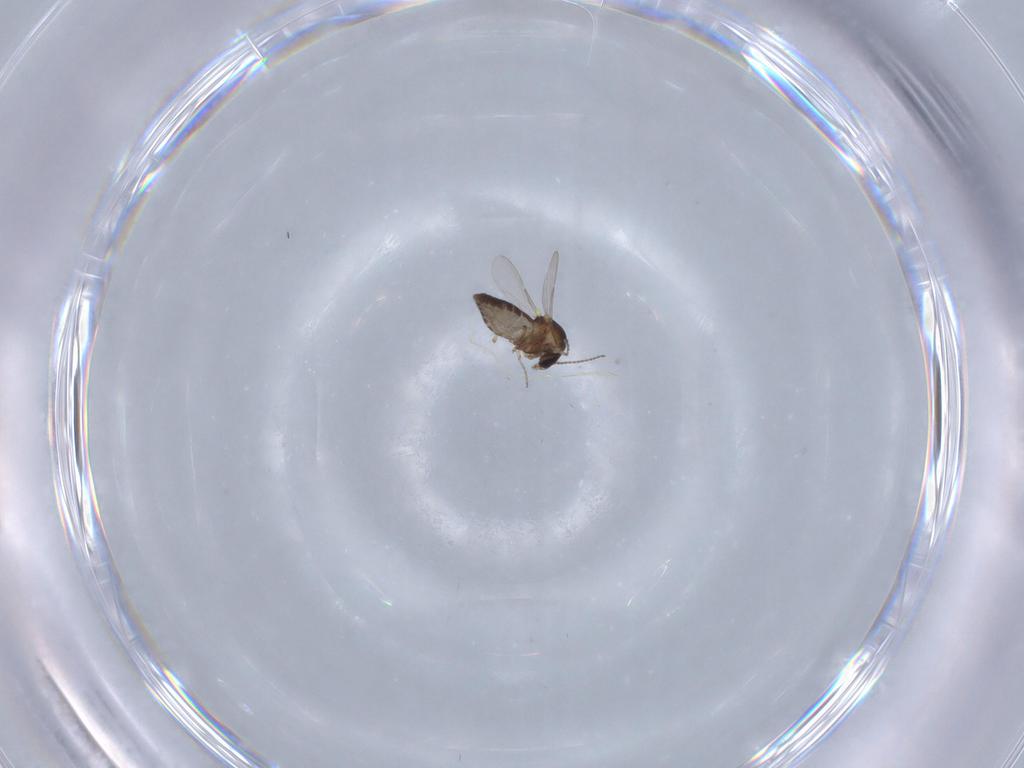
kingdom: Animalia
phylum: Arthropoda
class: Insecta
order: Diptera
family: Ceratopogonidae
